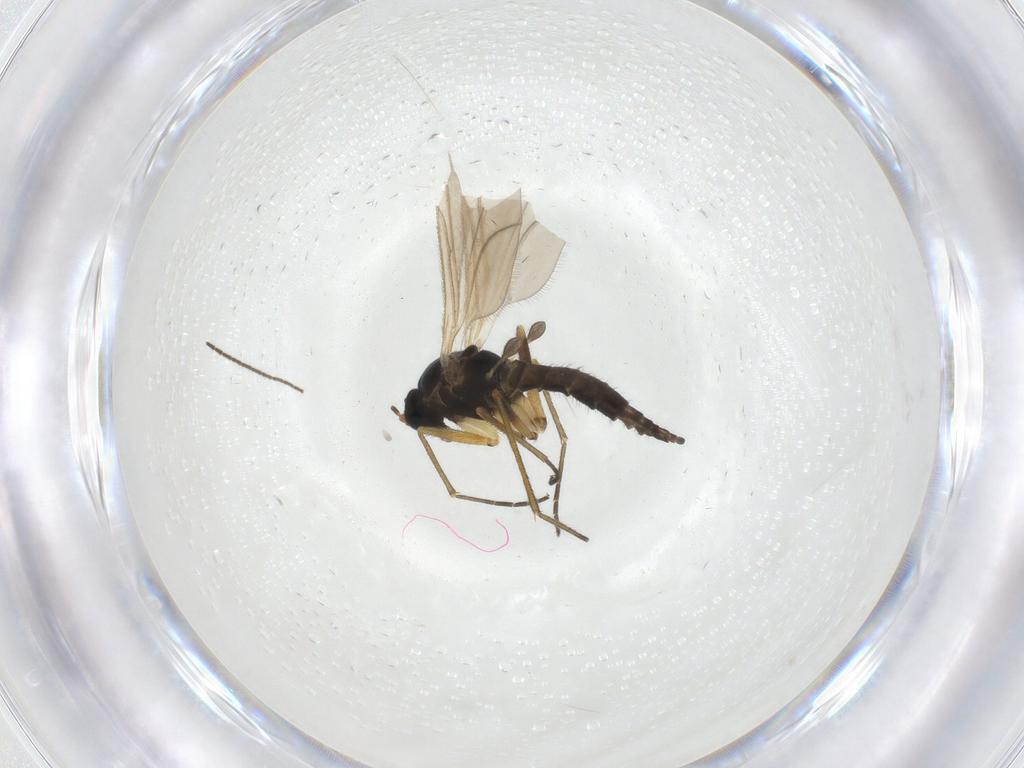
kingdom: Animalia
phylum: Arthropoda
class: Insecta
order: Diptera
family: Sciaridae
